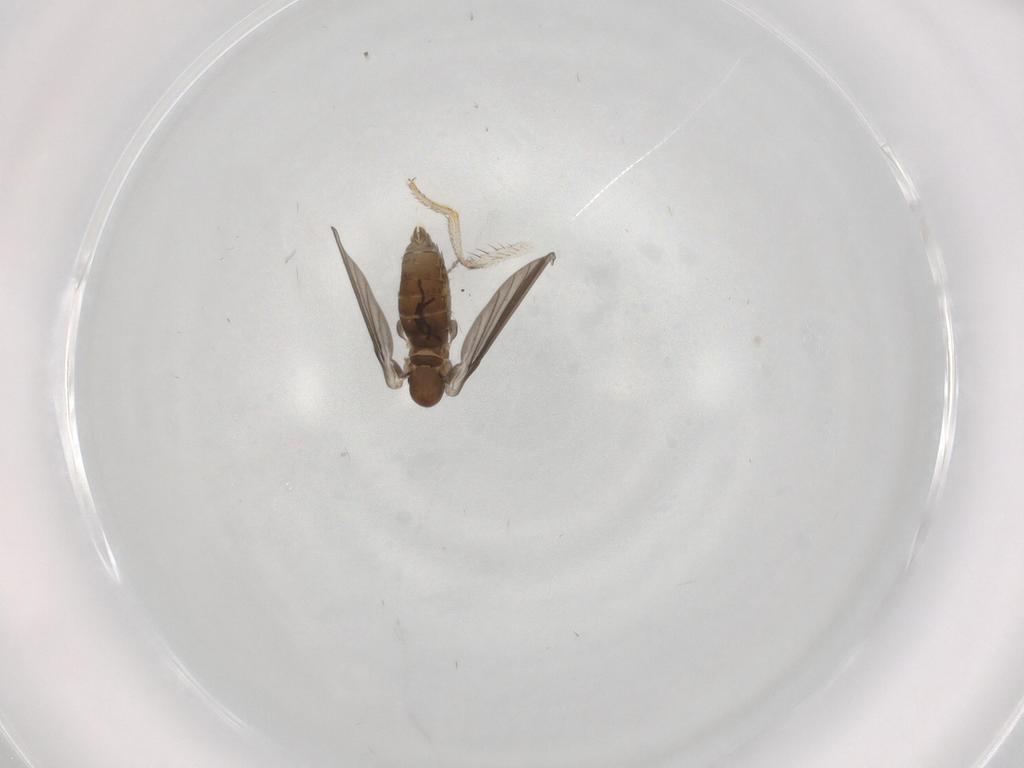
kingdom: Animalia
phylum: Arthropoda
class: Insecta
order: Diptera
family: Psychodidae
